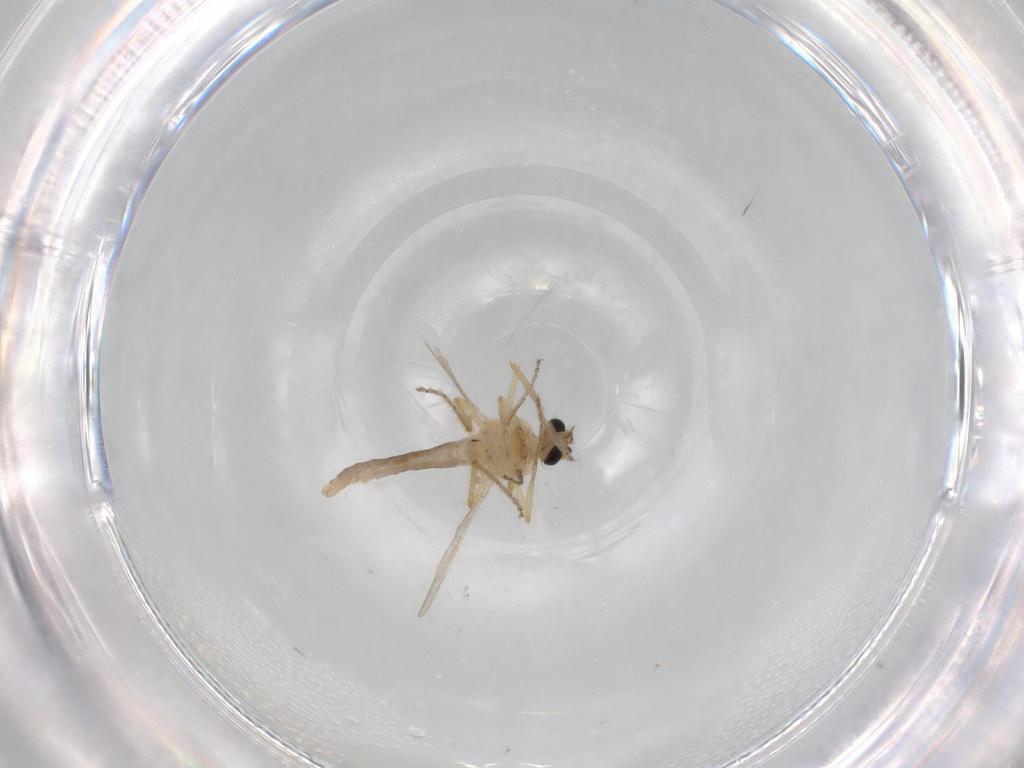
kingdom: Animalia
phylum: Arthropoda
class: Insecta
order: Diptera
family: Ceratopogonidae
